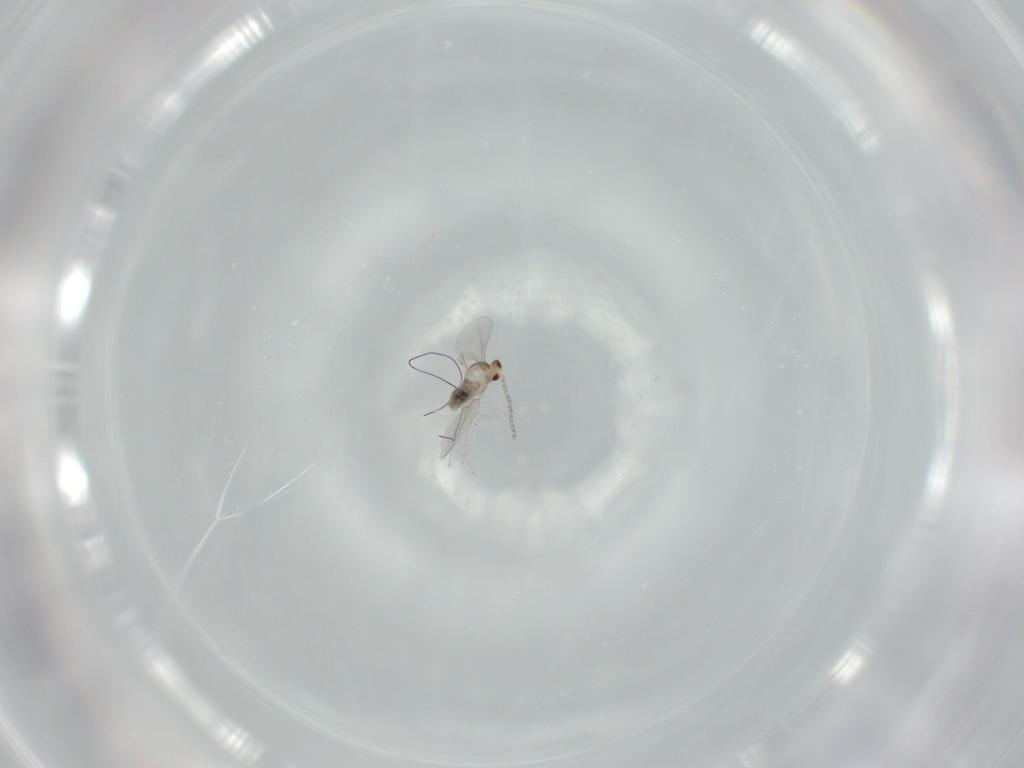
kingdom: Animalia
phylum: Arthropoda
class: Insecta
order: Diptera
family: Cecidomyiidae
